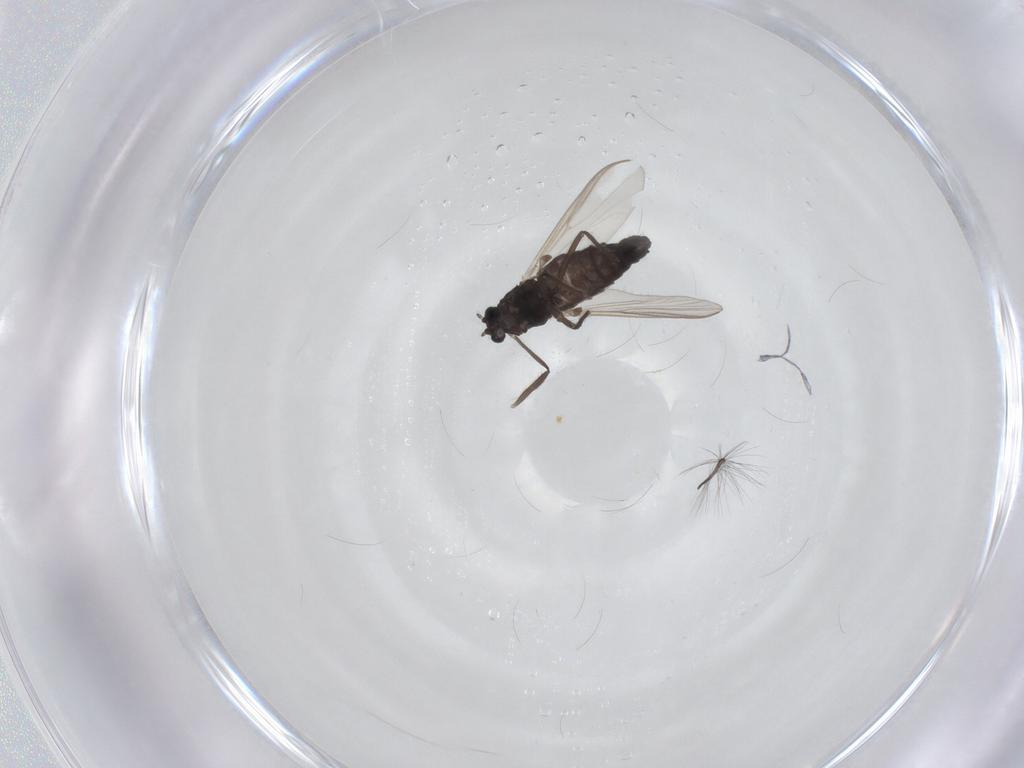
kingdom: Animalia
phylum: Arthropoda
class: Insecta
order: Diptera
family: Chironomidae
